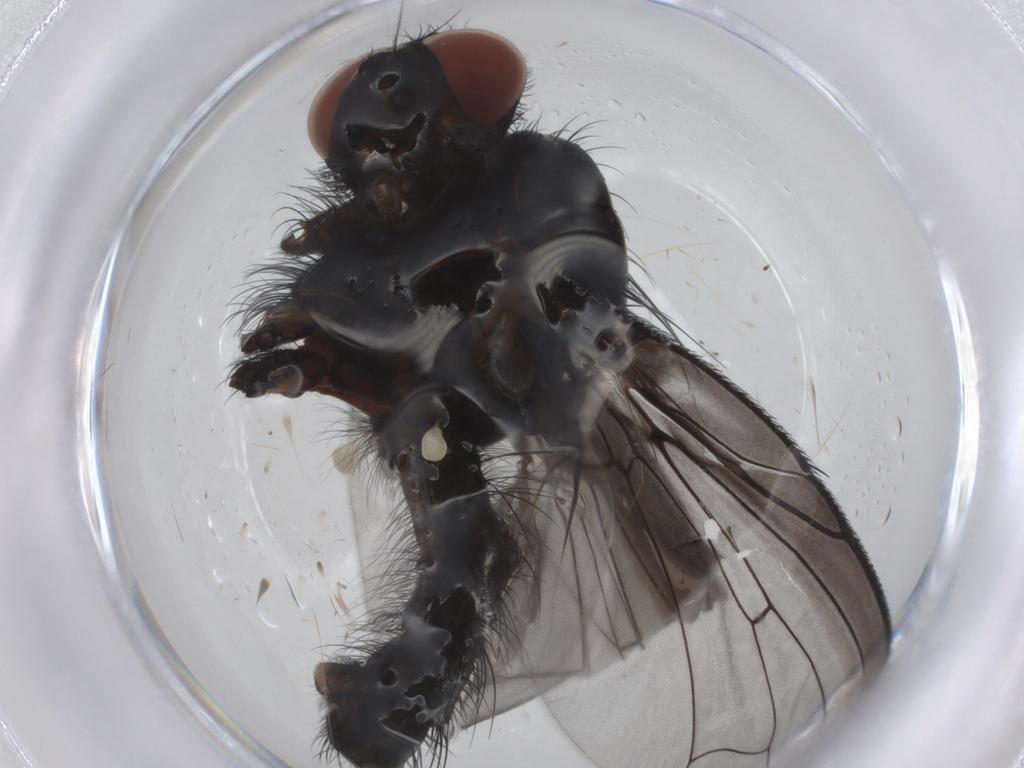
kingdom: Animalia
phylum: Arthropoda
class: Insecta
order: Diptera
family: Anthomyiidae
